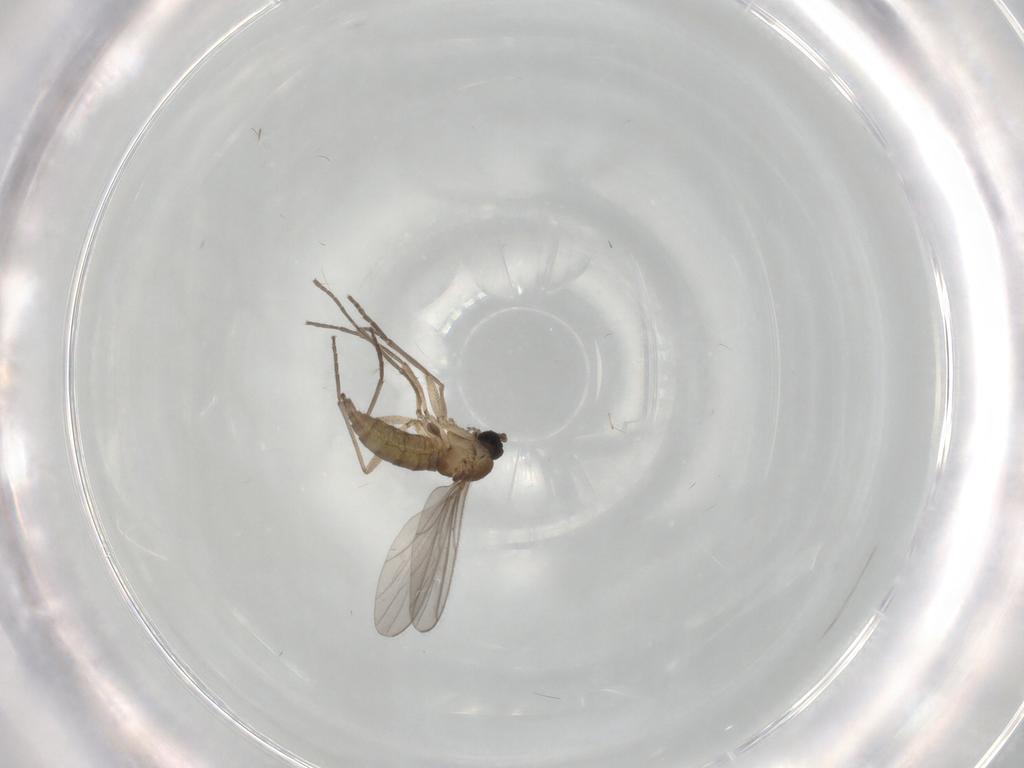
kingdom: Animalia
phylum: Arthropoda
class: Insecta
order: Diptera
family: Sciaridae
